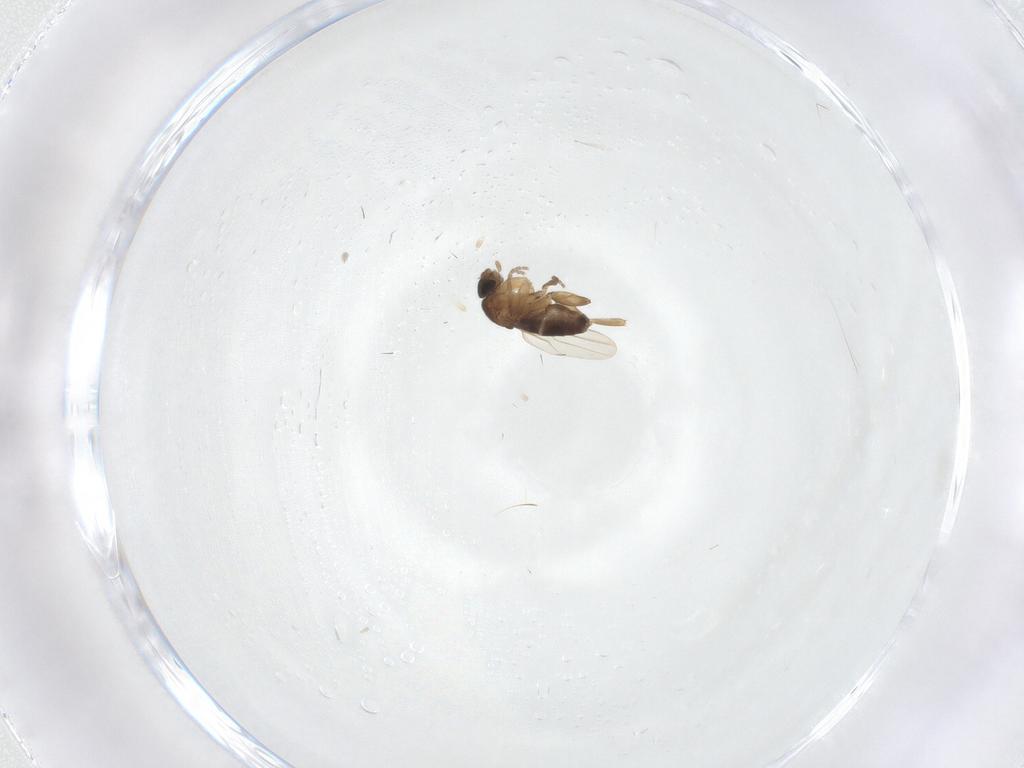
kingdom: Animalia
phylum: Arthropoda
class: Insecta
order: Diptera
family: Phoridae
